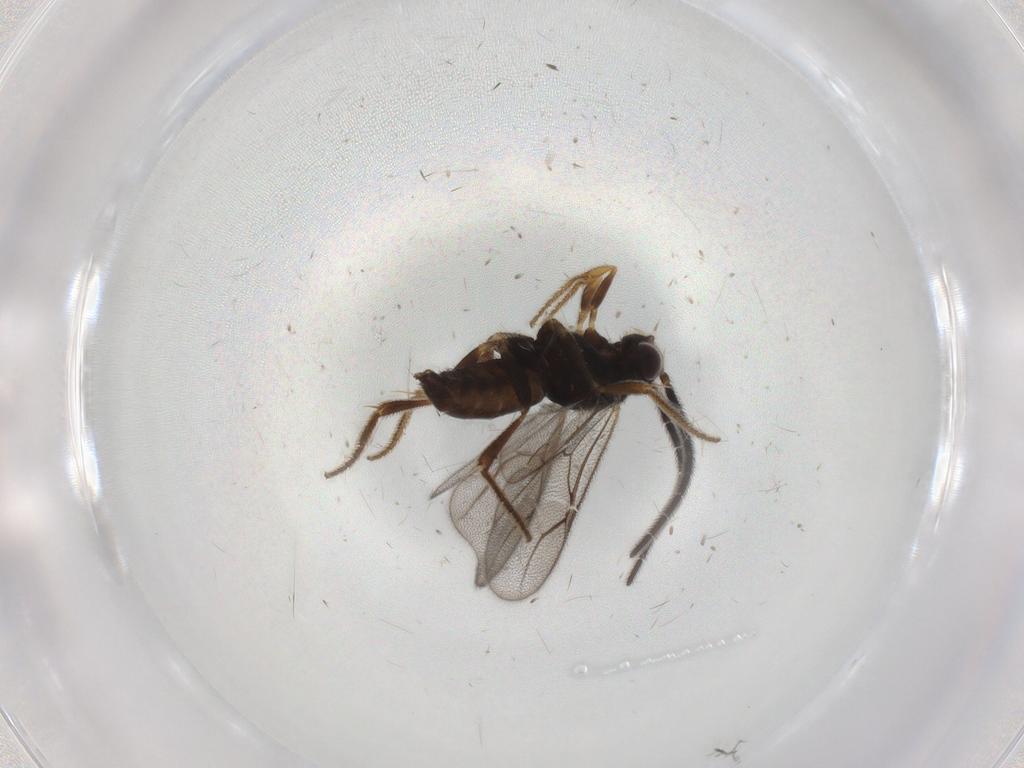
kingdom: Animalia
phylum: Arthropoda
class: Insecta
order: Hymenoptera
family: Dryinidae
